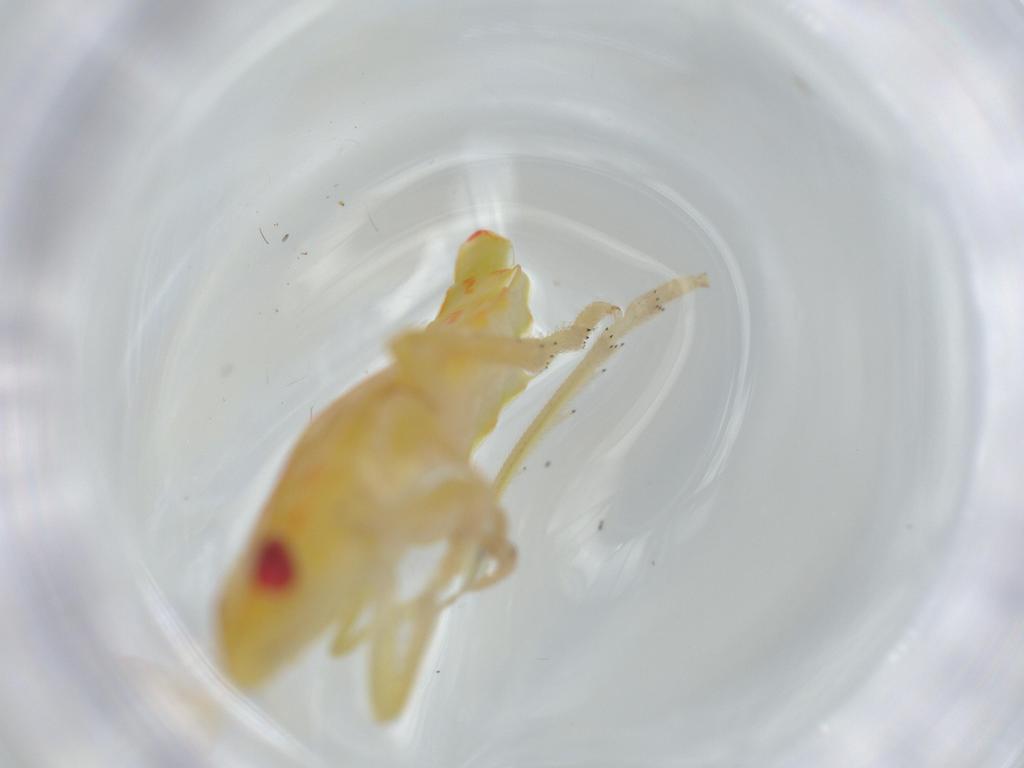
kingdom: Animalia
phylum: Arthropoda
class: Insecta
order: Hemiptera
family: Tropiduchidae
